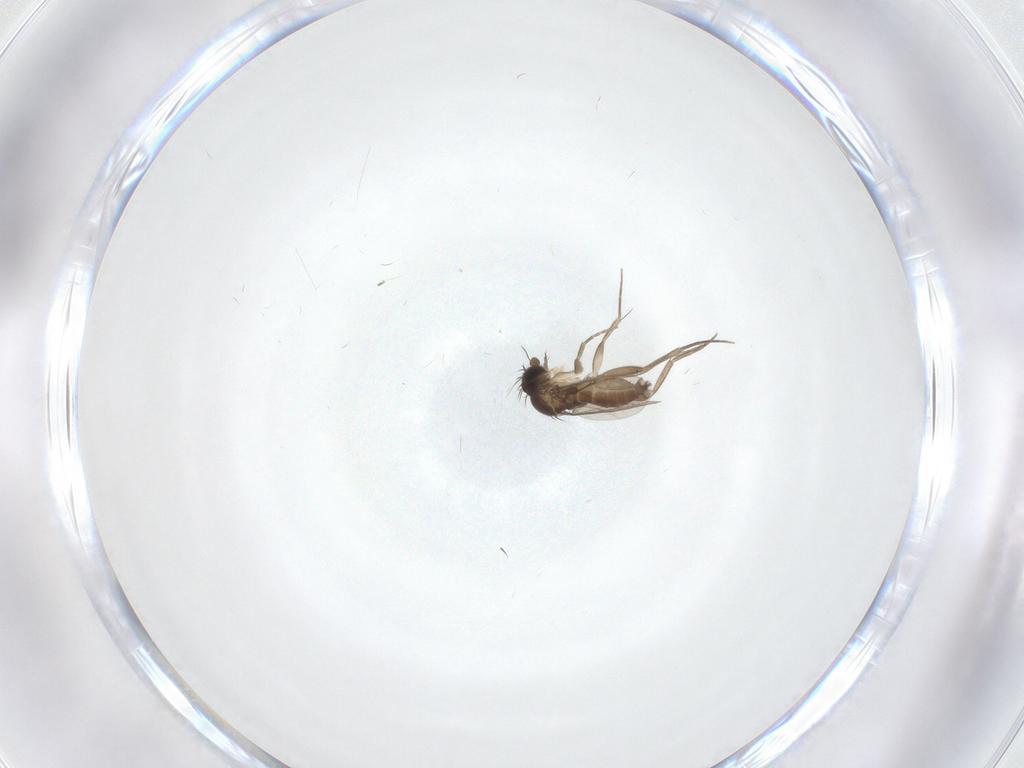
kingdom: Animalia
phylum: Arthropoda
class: Insecta
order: Diptera
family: Phoridae
